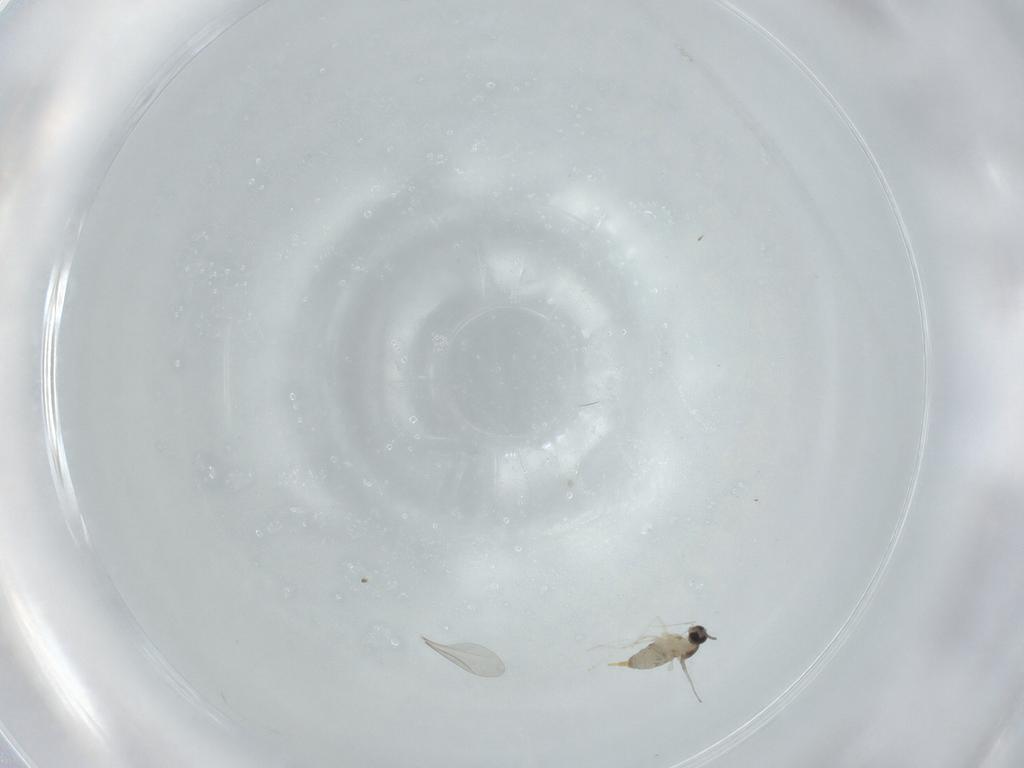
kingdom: Animalia
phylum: Arthropoda
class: Insecta
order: Diptera
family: Cecidomyiidae
